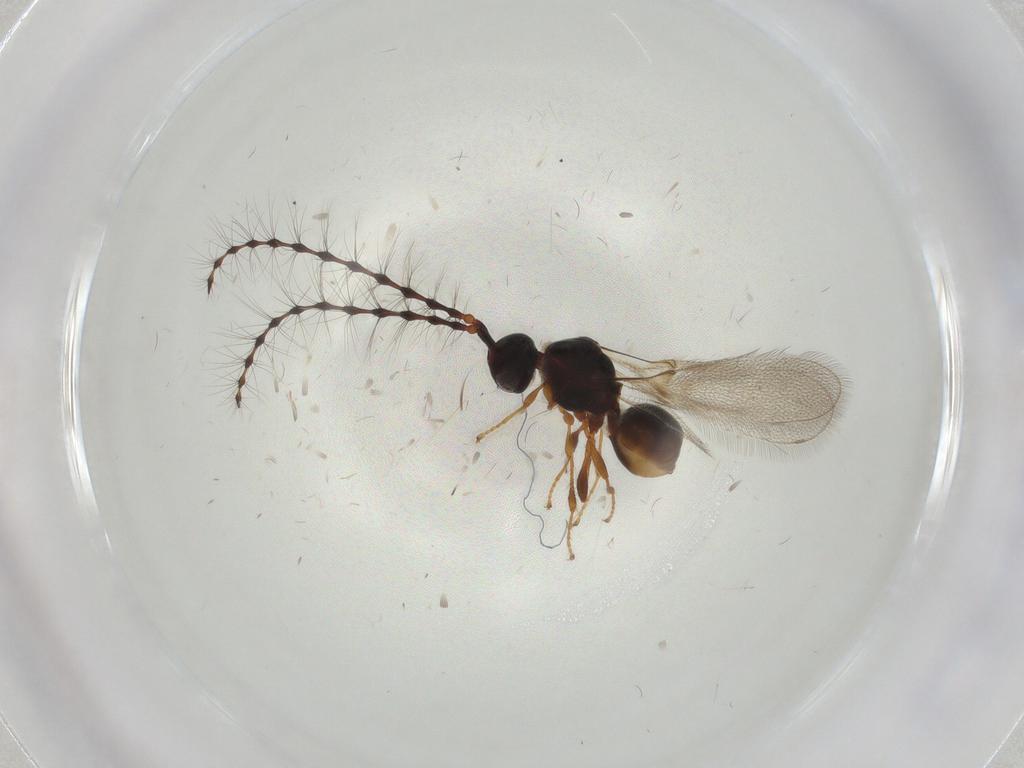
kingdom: Animalia
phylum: Arthropoda
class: Insecta
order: Hymenoptera
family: Diapriidae
